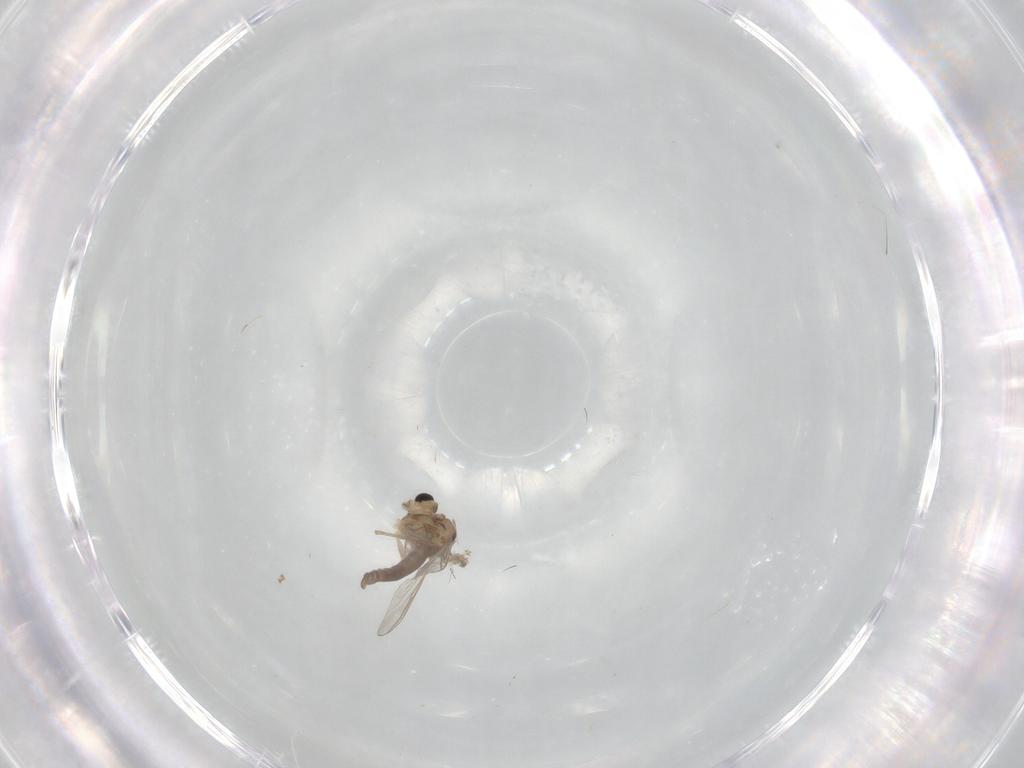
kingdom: Animalia
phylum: Arthropoda
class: Insecta
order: Diptera
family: Chironomidae
